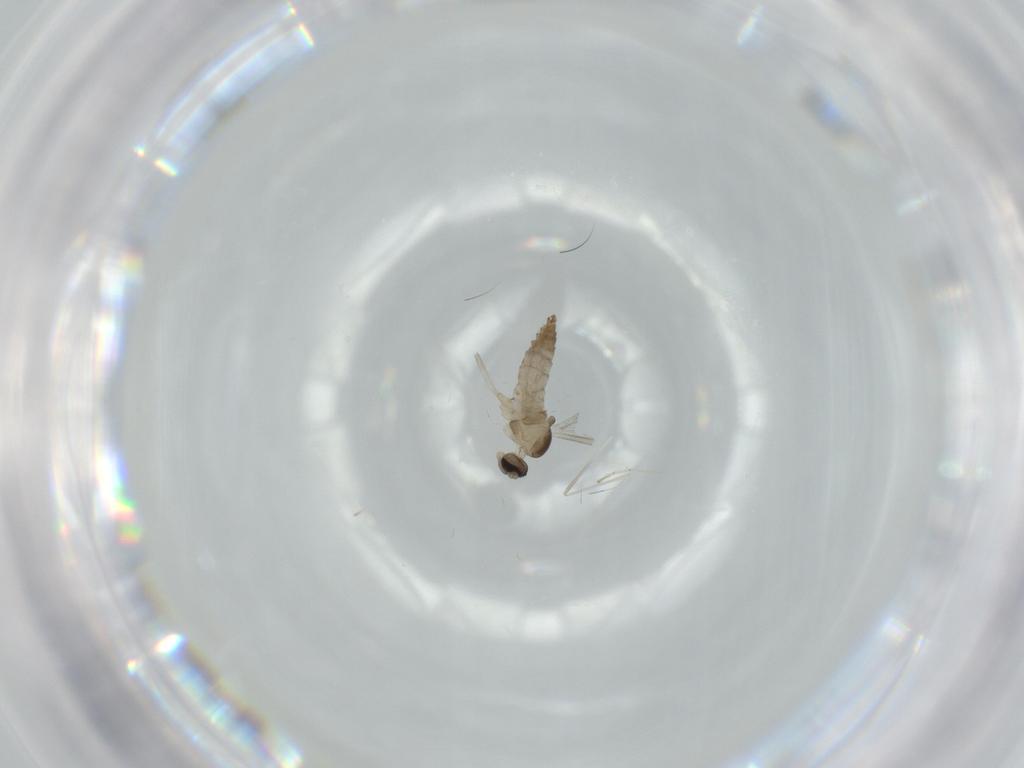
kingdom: Animalia
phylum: Arthropoda
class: Insecta
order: Diptera
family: Cecidomyiidae
